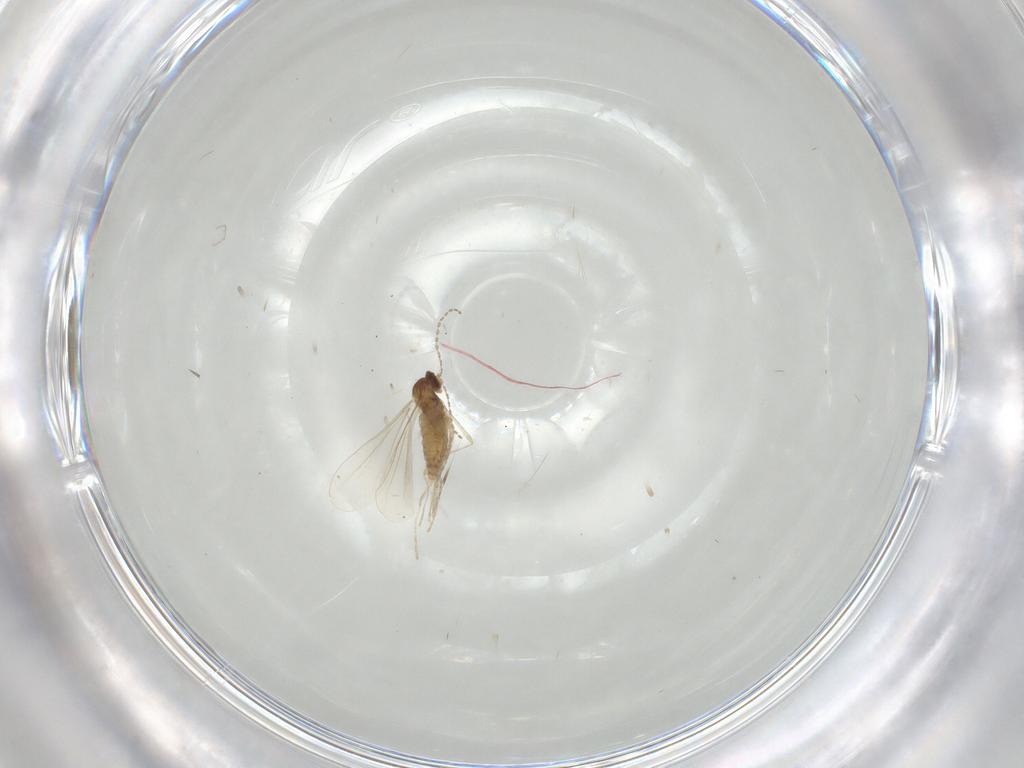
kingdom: Animalia
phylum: Arthropoda
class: Insecta
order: Diptera
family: Cecidomyiidae
